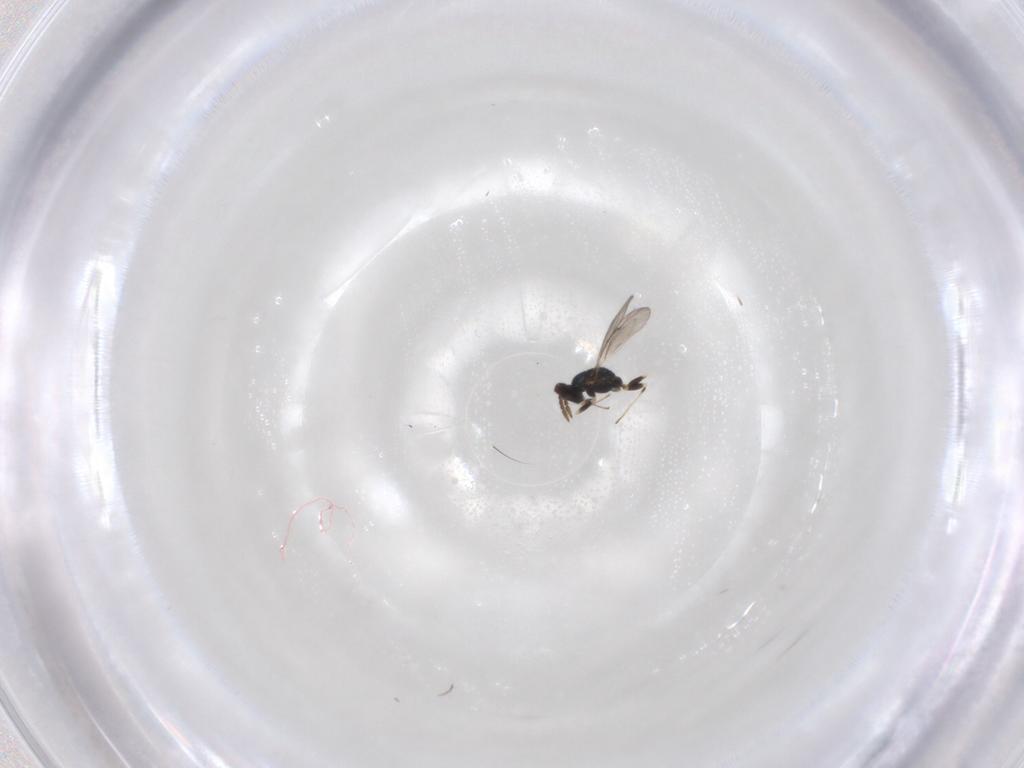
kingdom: Animalia
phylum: Arthropoda
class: Insecta
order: Hymenoptera
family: Eulophidae
